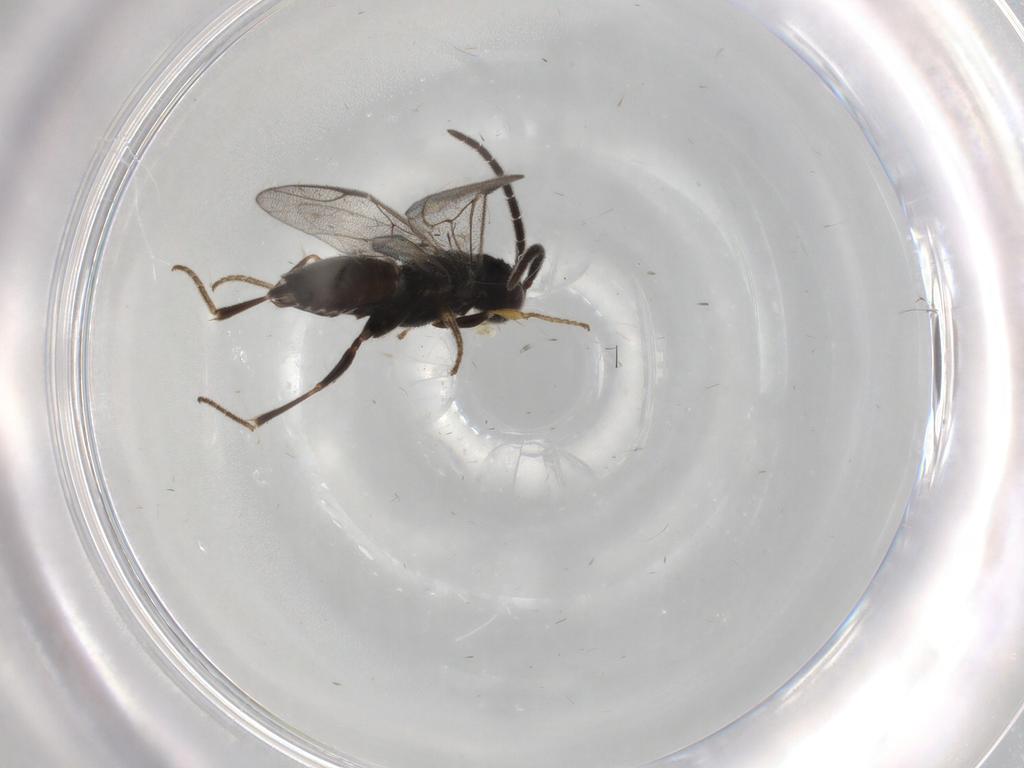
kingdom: Animalia
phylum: Arthropoda
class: Insecta
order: Hymenoptera
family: Dryinidae
